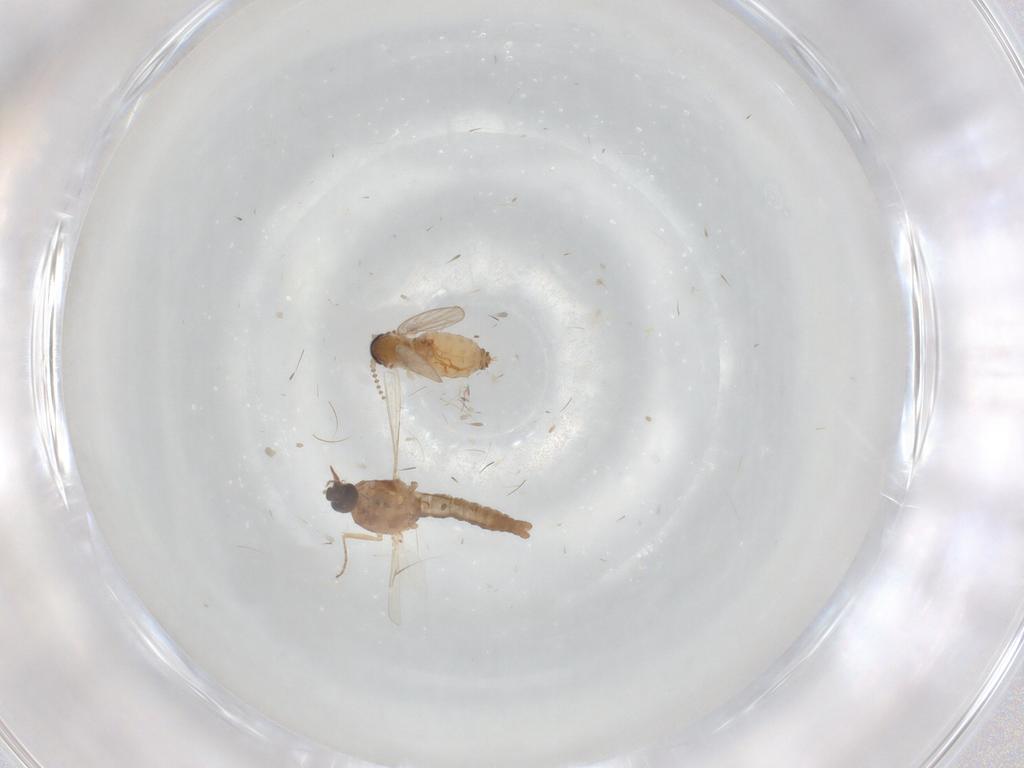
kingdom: Animalia
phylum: Arthropoda
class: Insecta
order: Diptera
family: Ceratopogonidae
